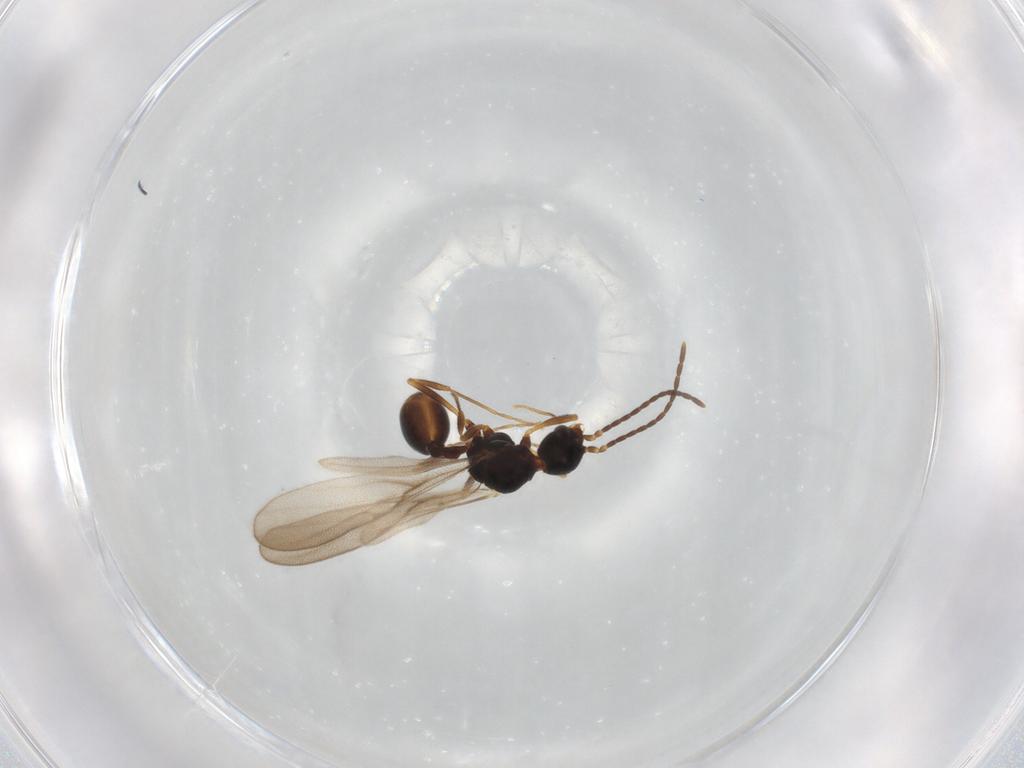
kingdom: Animalia
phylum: Arthropoda
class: Insecta
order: Hymenoptera
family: Formicidae
